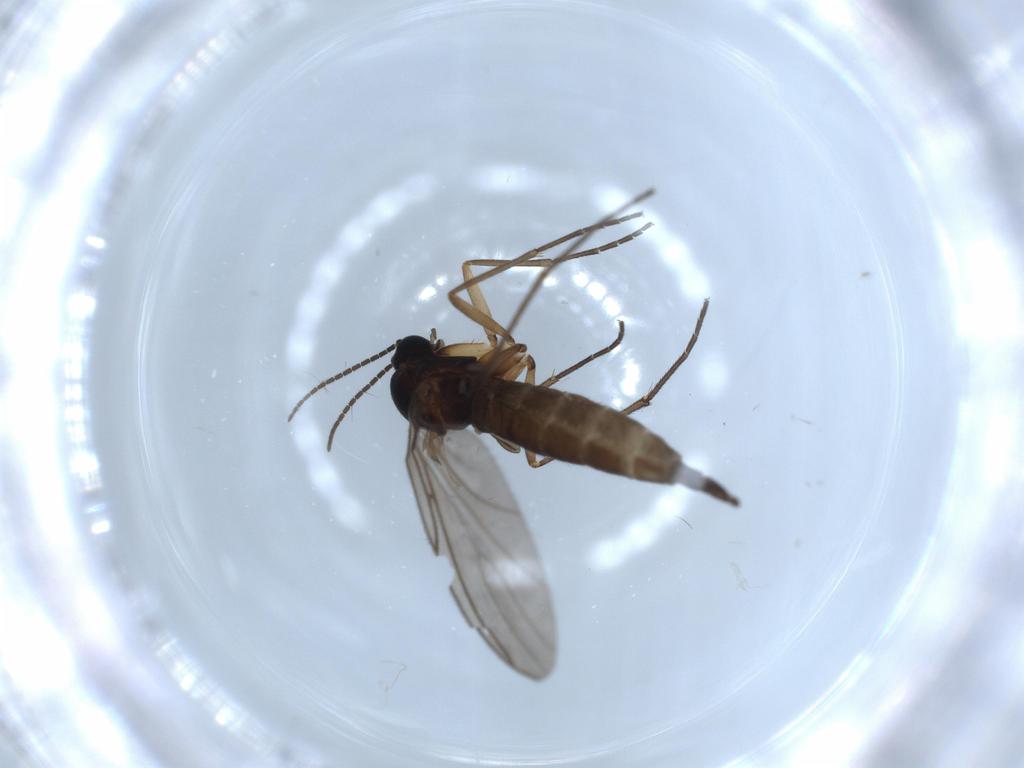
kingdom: Animalia
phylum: Arthropoda
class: Insecta
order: Diptera
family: Sciaridae
